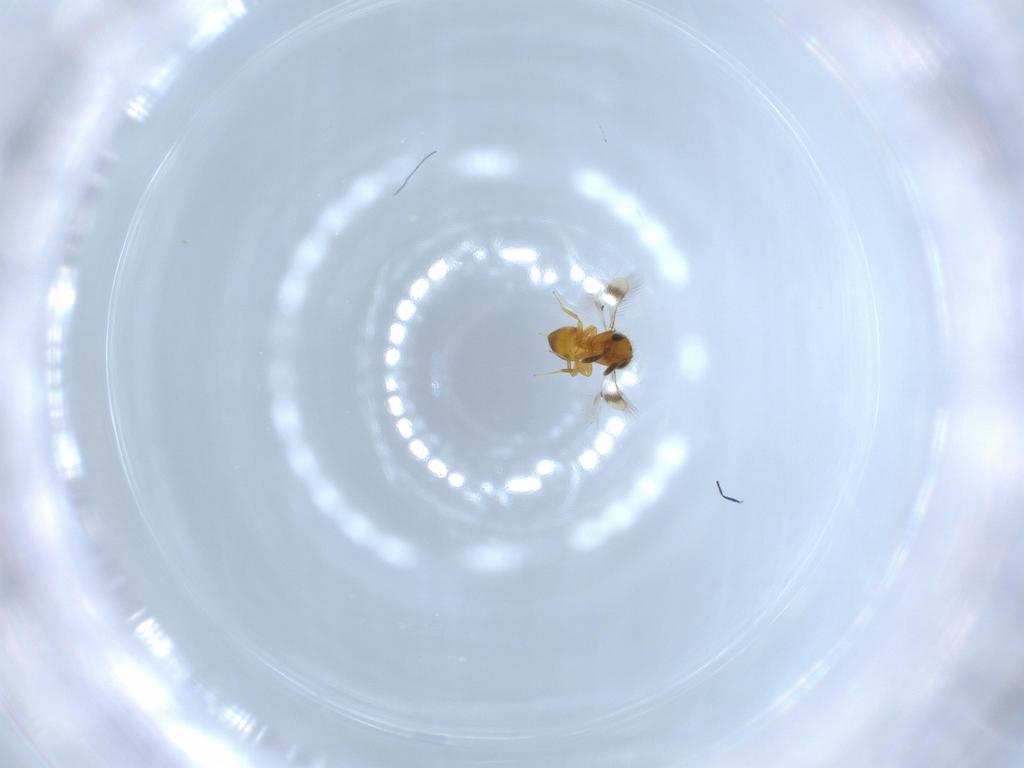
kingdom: Animalia
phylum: Arthropoda
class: Insecta
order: Hymenoptera
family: Scelionidae
